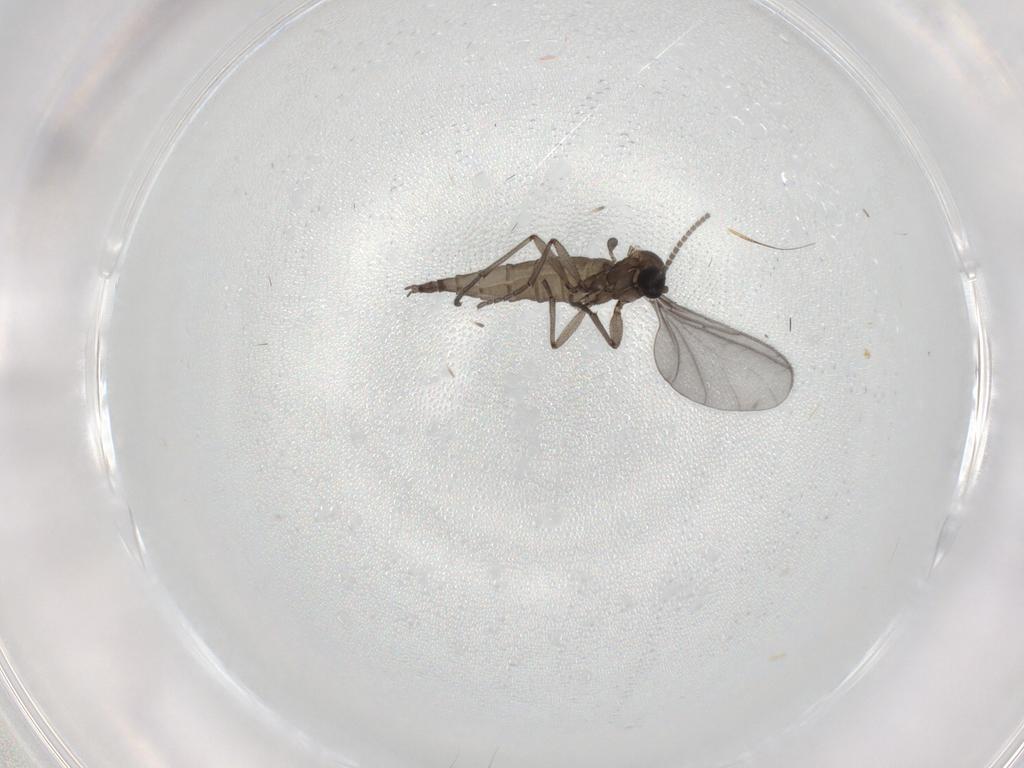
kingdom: Animalia
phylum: Arthropoda
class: Insecta
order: Diptera
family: Sciaridae
